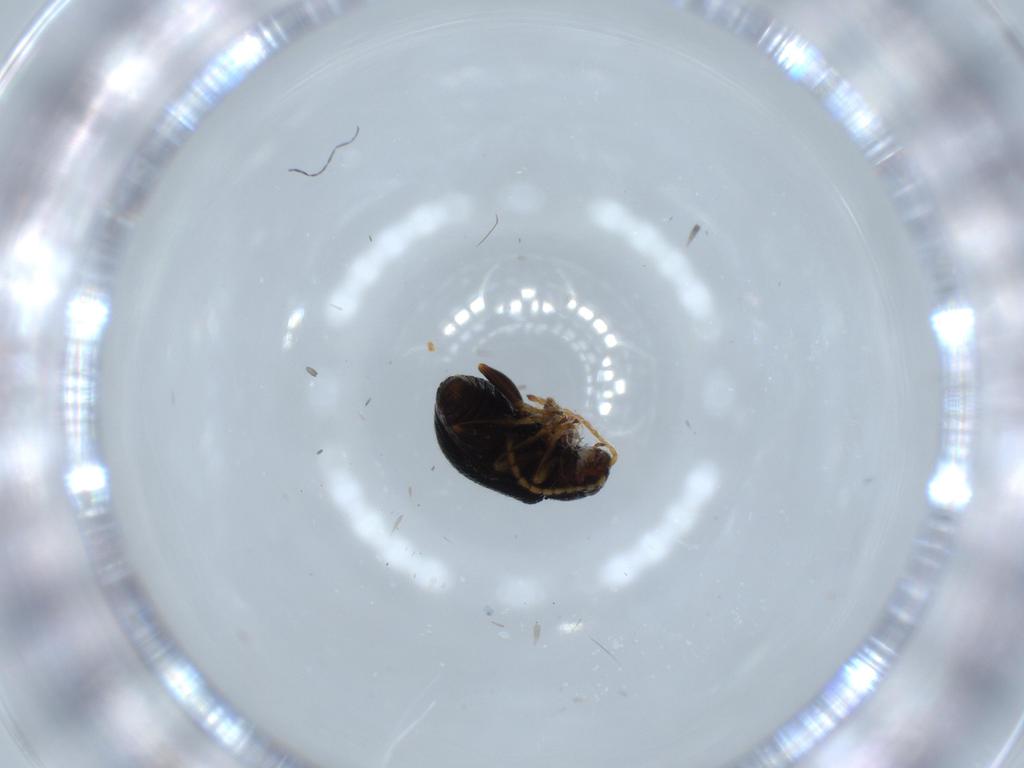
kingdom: Animalia
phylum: Arthropoda
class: Insecta
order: Coleoptera
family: Chrysomelidae
